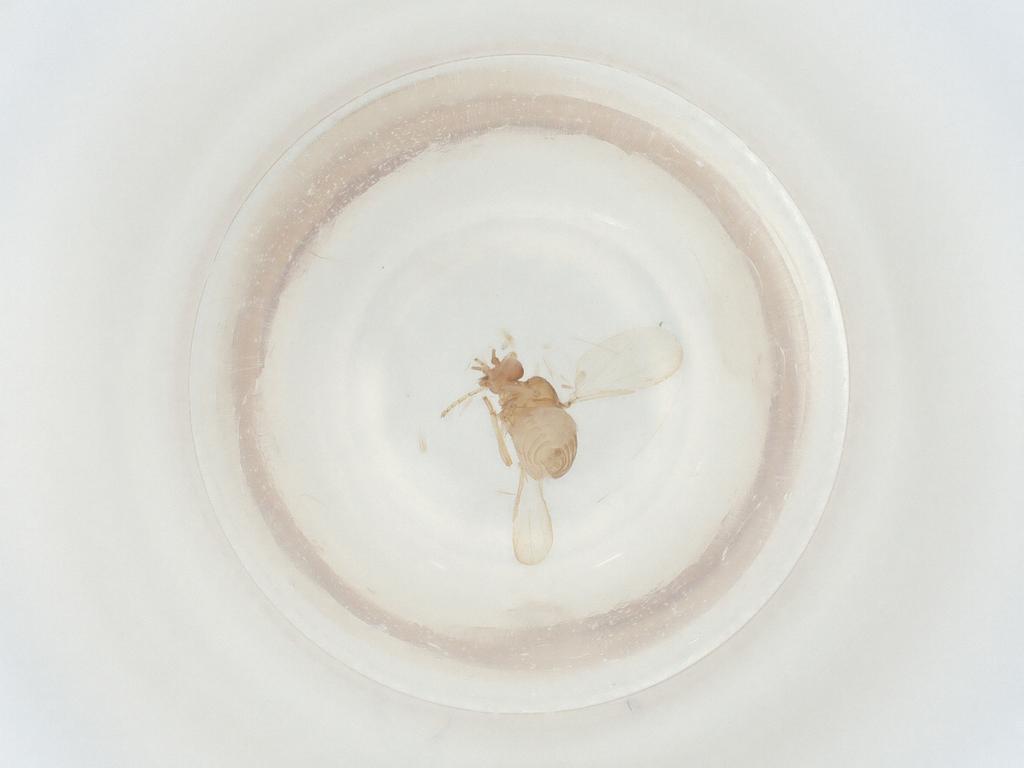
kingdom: Animalia
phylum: Arthropoda
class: Insecta
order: Diptera
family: Ceratopogonidae
